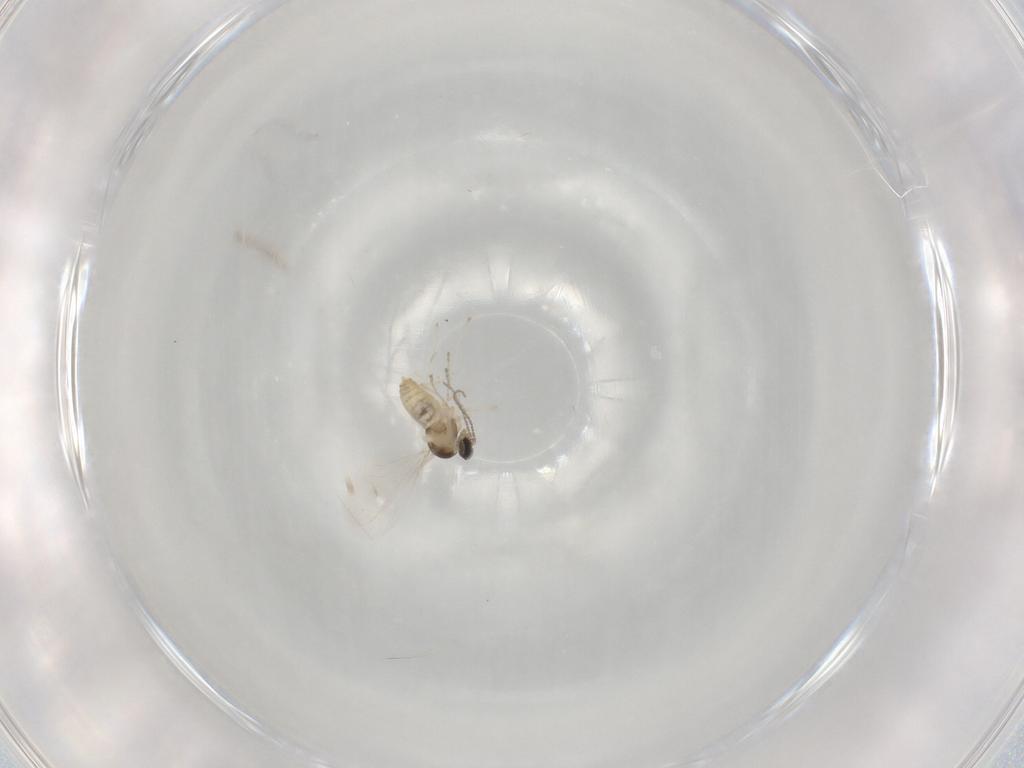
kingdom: Animalia
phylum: Arthropoda
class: Insecta
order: Diptera
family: Cecidomyiidae
